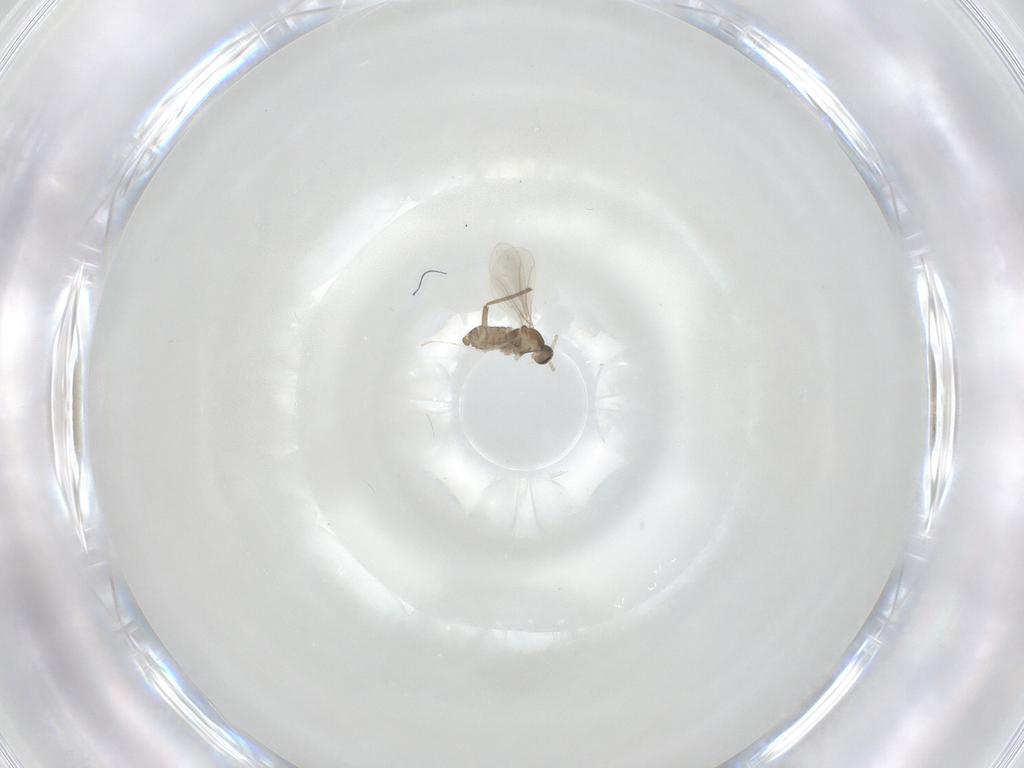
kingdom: Animalia
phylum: Arthropoda
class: Insecta
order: Diptera
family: Cecidomyiidae
